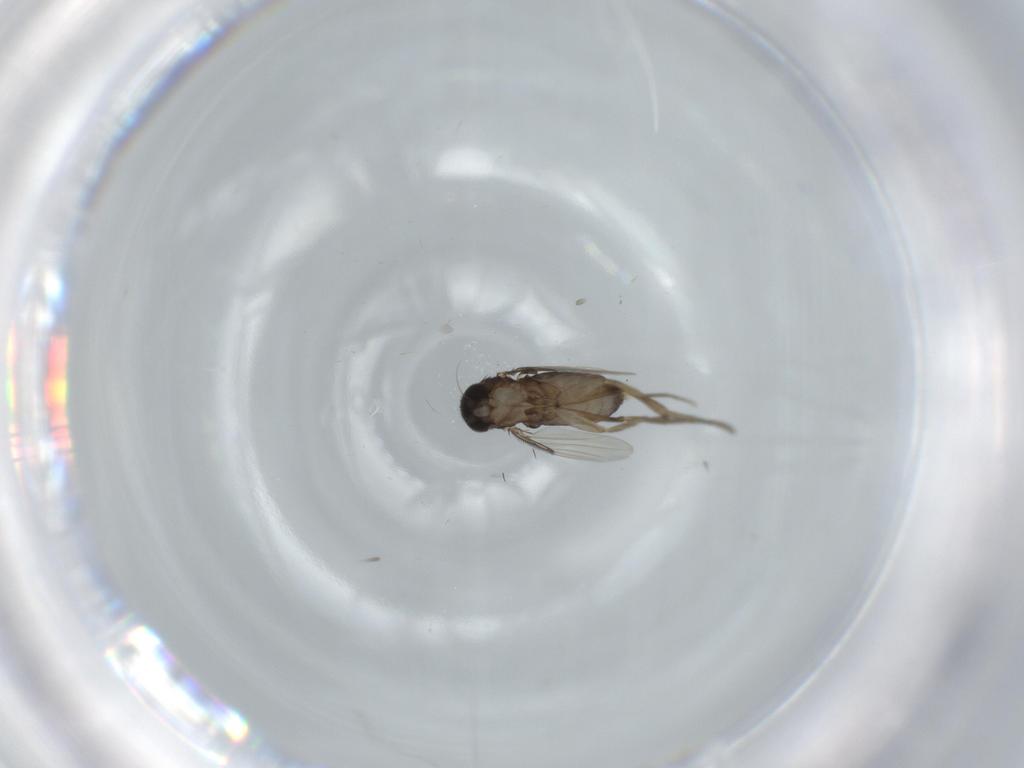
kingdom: Animalia
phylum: Arthropoda
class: Insecta
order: Diptera
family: Phoridae
